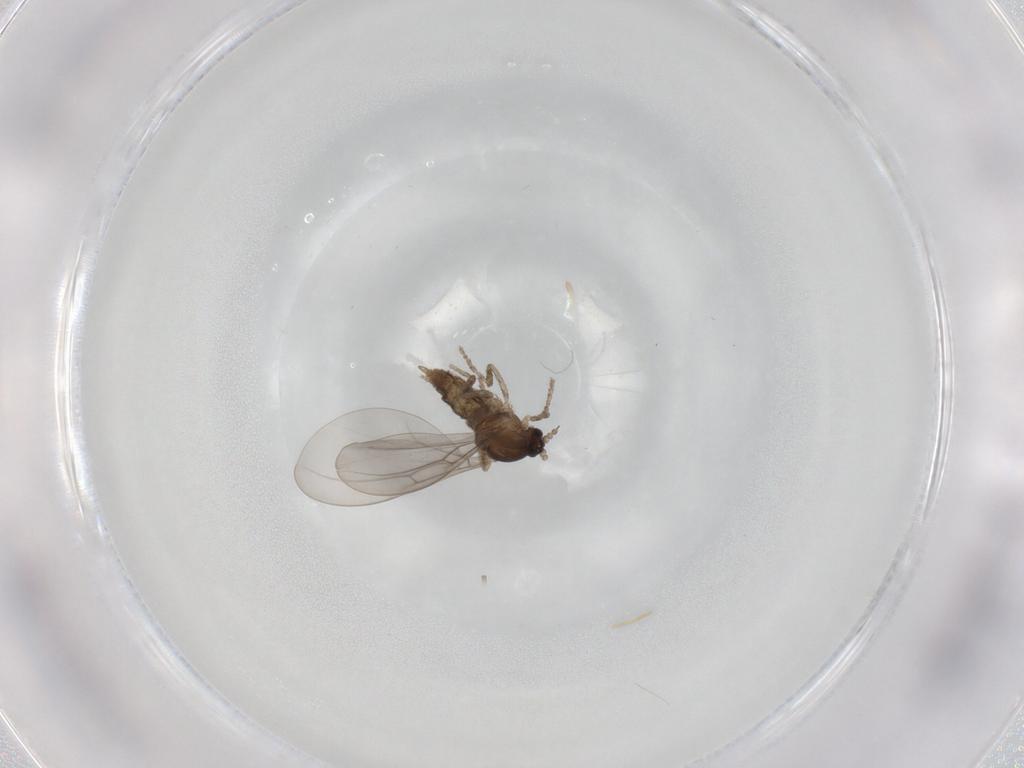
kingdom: Animalia
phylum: Arthropoda
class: Insecta
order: Diptera
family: Cecidomyiidae
